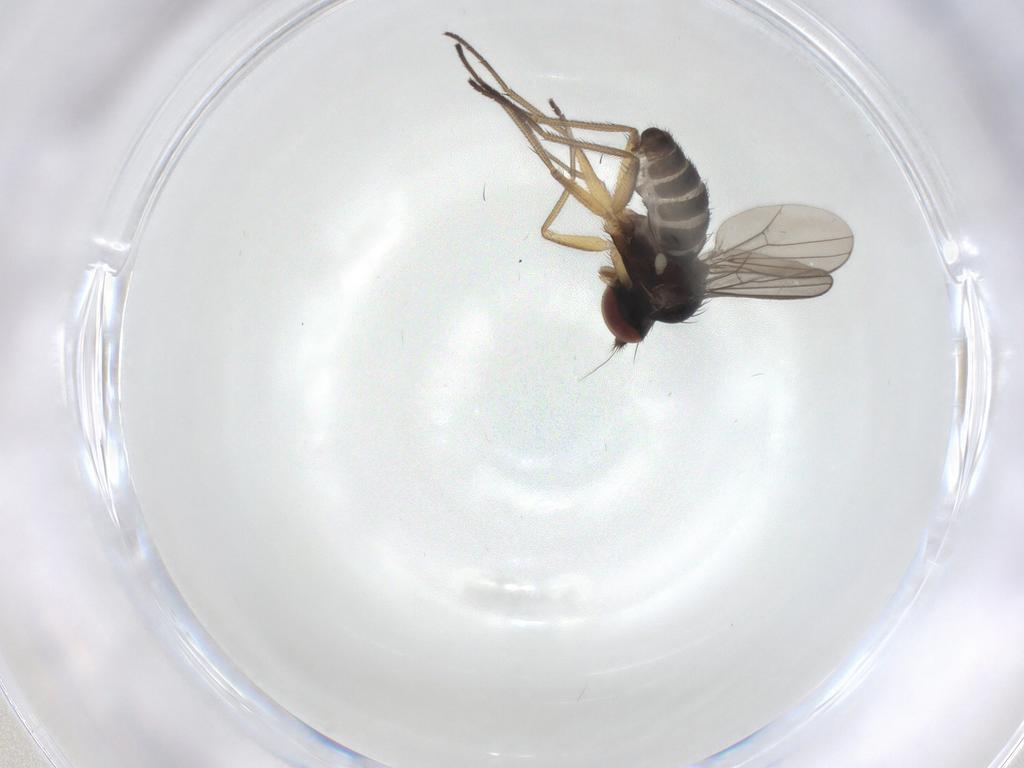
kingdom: Animalia
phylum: Arthropoda
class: Insecta
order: Diptera
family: Dolichopodidae
